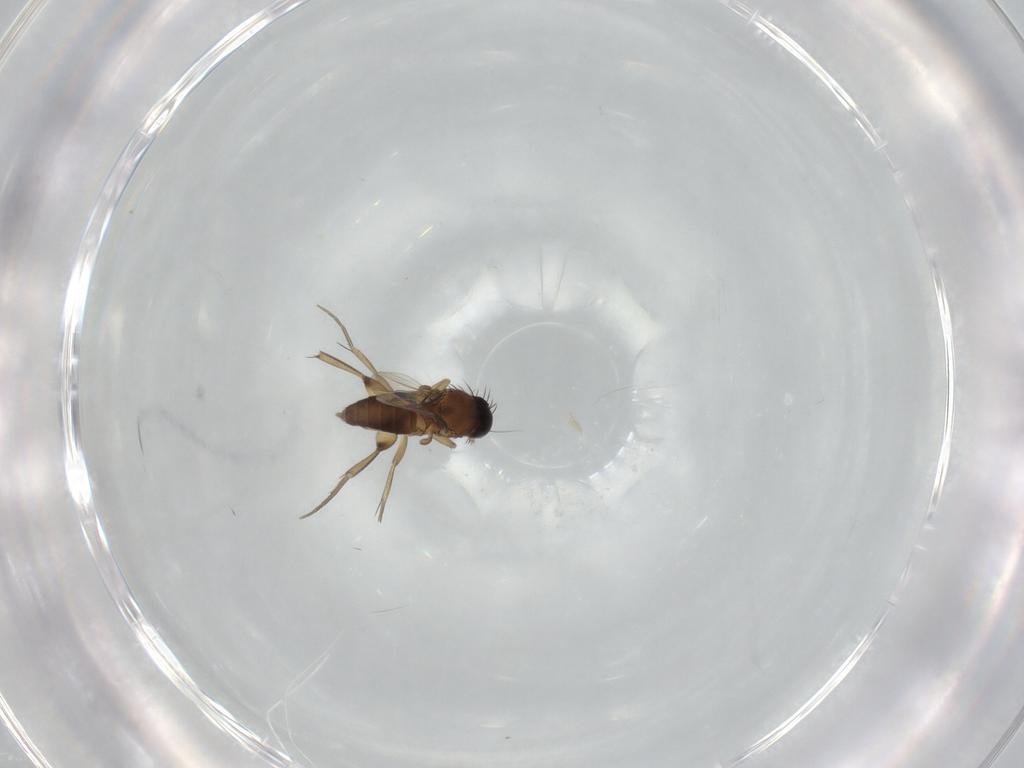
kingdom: Animalia
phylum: Arthropoda
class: Insecta
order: Diptera
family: Phoridae
